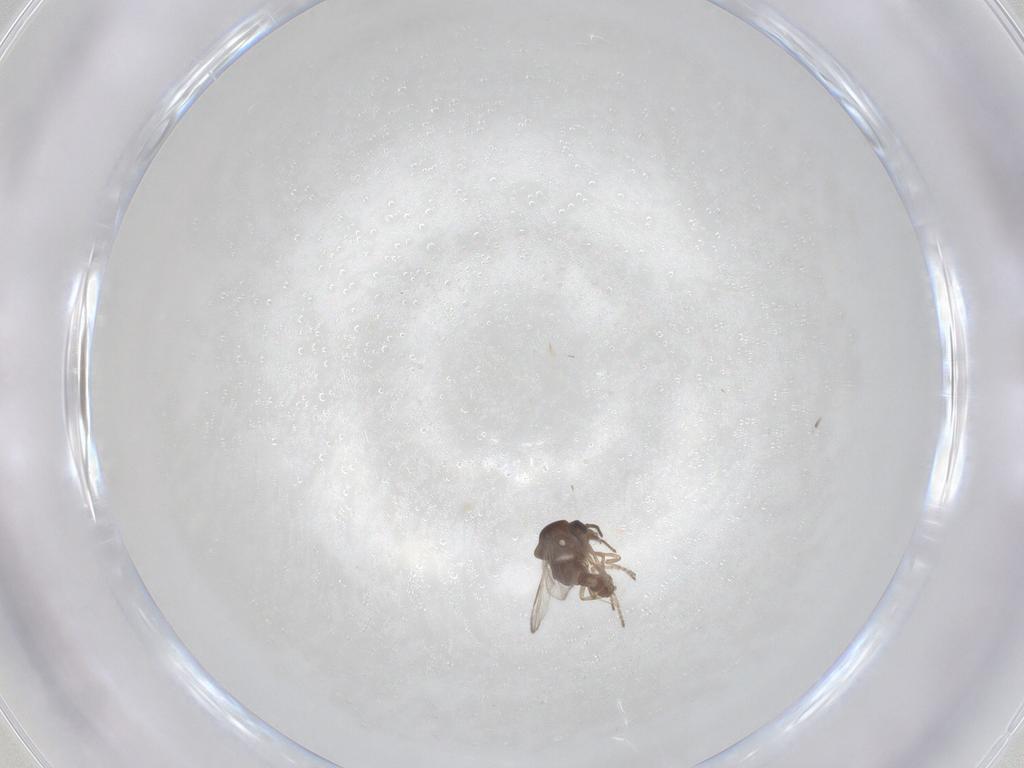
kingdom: Animalia
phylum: Arthropoda
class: Insecta
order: Diptera
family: Ceratopogonidae
